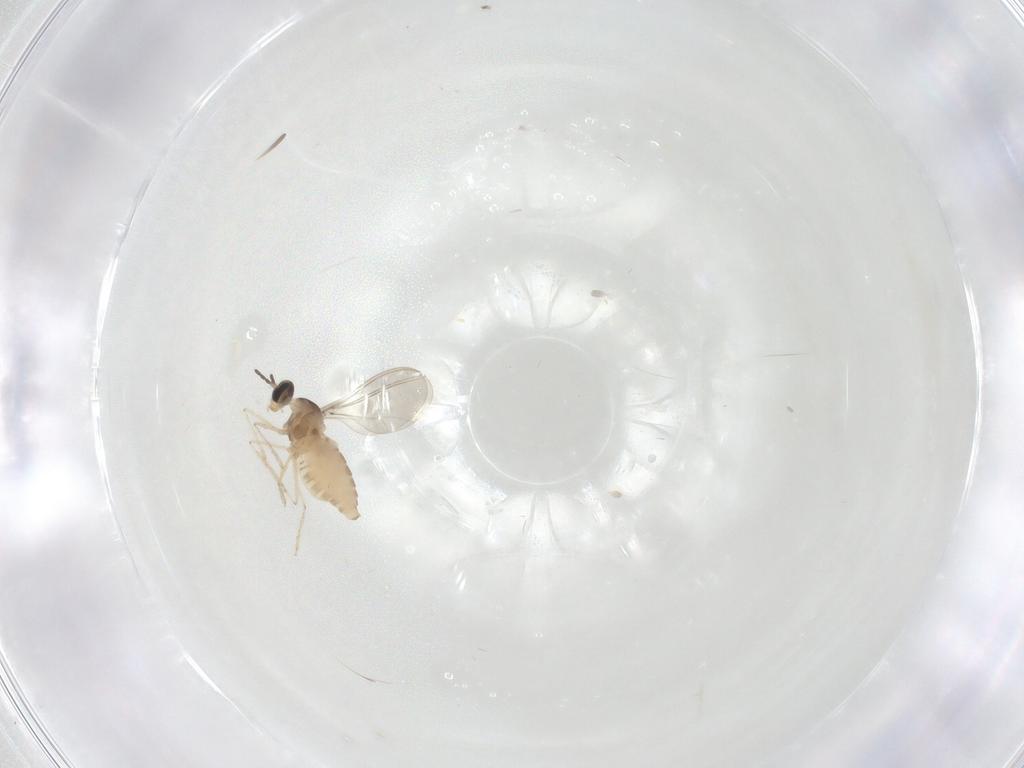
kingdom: Animalia
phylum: Arthropoda
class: Insecta
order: Diptera
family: Cecidomyiidae
